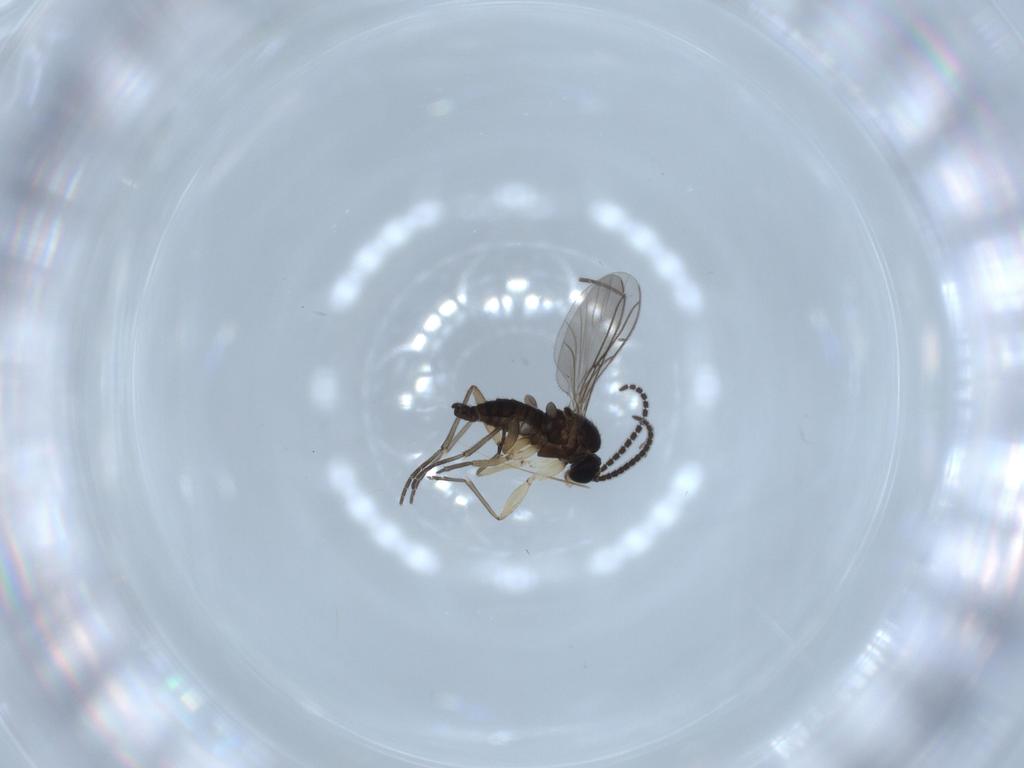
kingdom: Animalia
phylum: Arthropoda
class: Insecta
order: Diptera
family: Sciaridae
